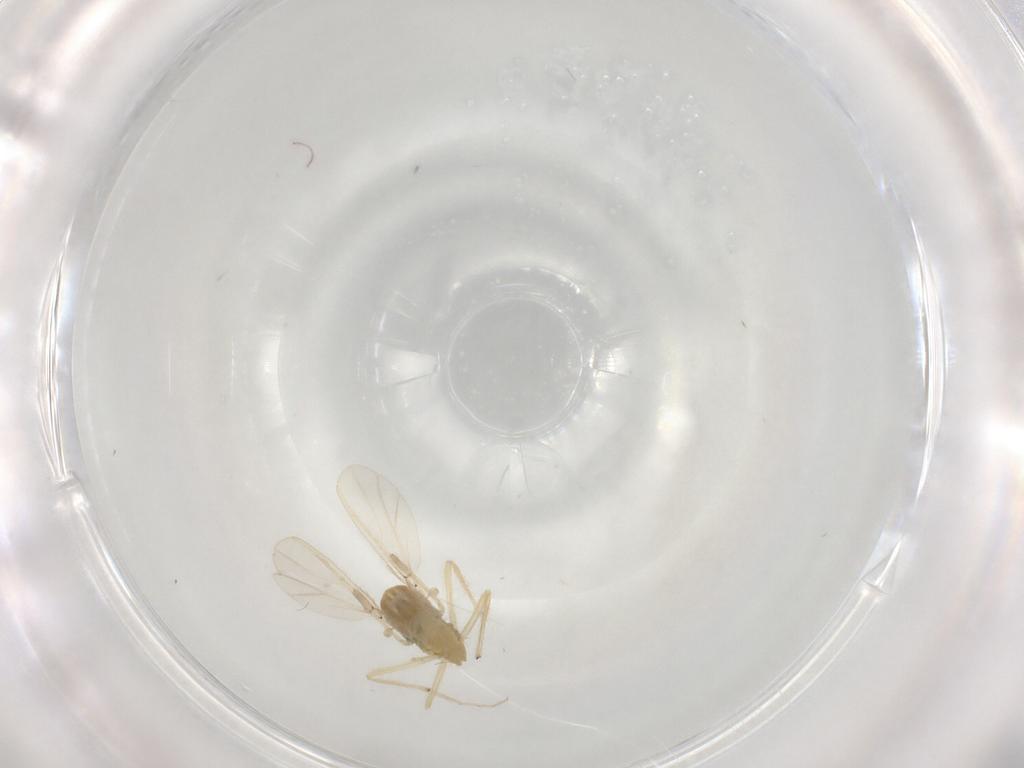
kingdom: Animalia
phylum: Arthropoda
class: Insecta
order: Diptera
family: Chironomidae
